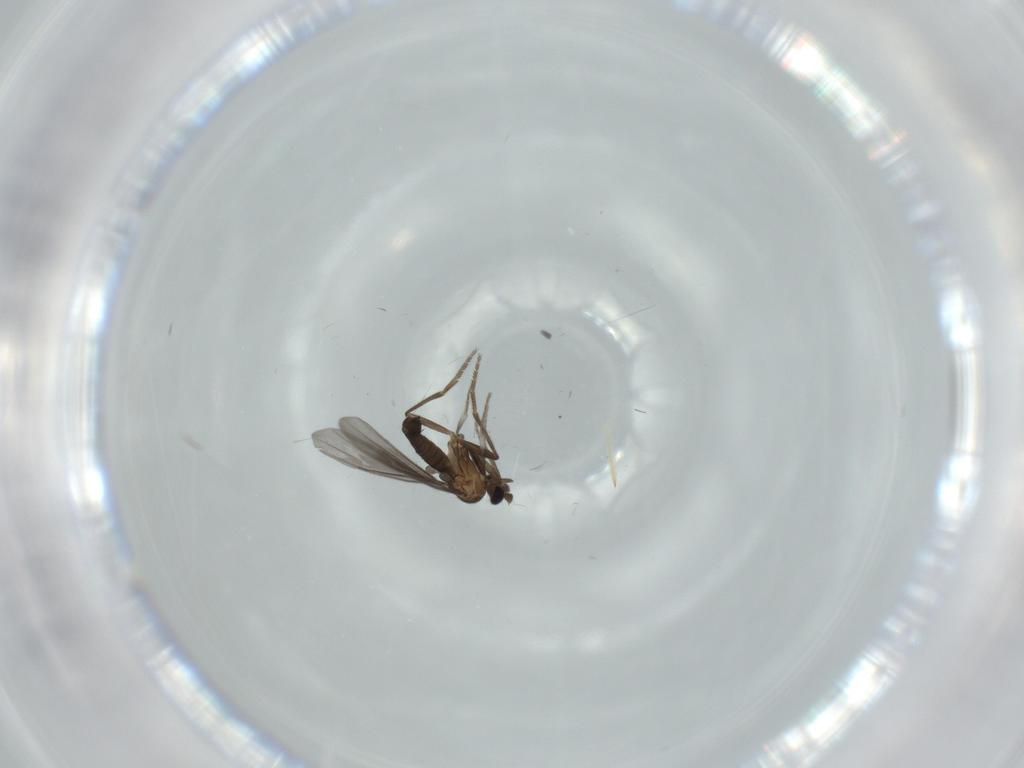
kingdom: Animalia
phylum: Arthropoda
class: Insecta
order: Diptera
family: Phoridae
